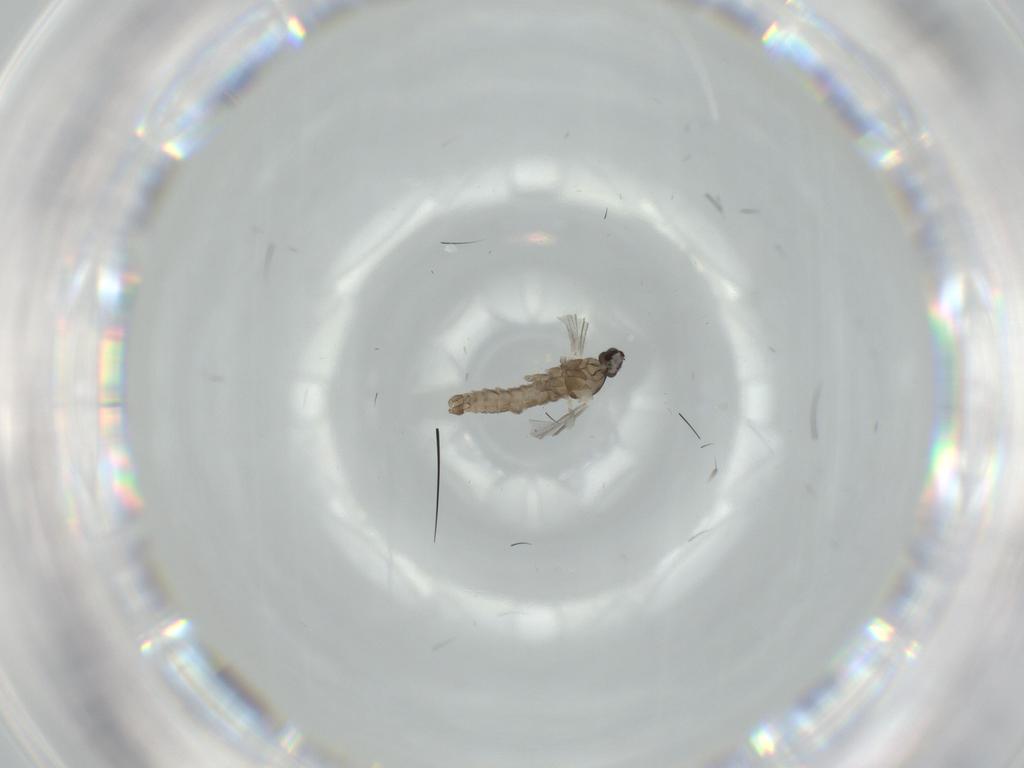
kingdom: Animalia
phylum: Arthropoda
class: Insecta
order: Diptera
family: Cecidomyiidae
